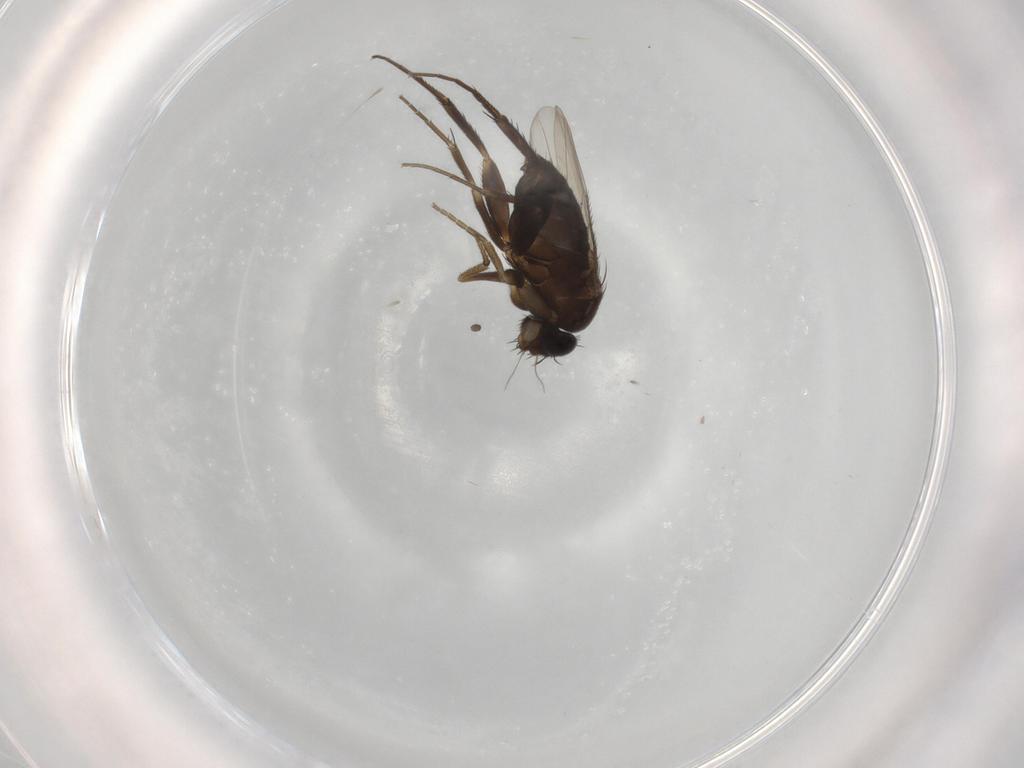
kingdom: Animalia
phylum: Arthropoda
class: Insecta
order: Diptera
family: Phoridae
